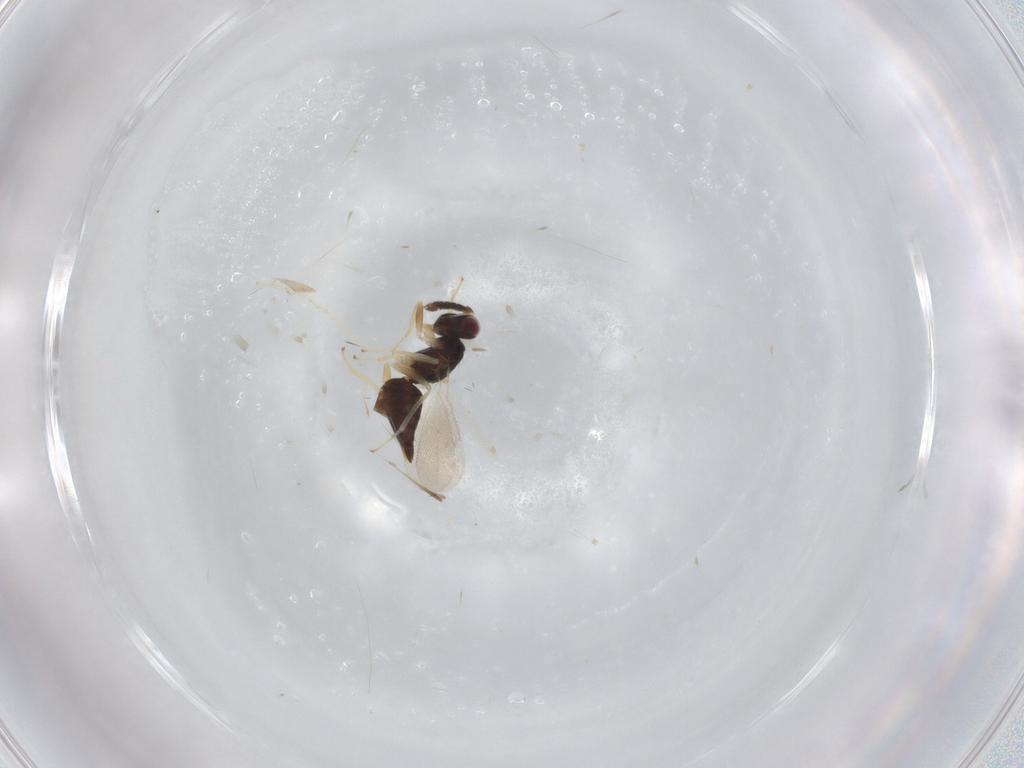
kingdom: Animalia
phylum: Arthropoda
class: Insecta
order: Hymenoptera
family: Eulophidae
